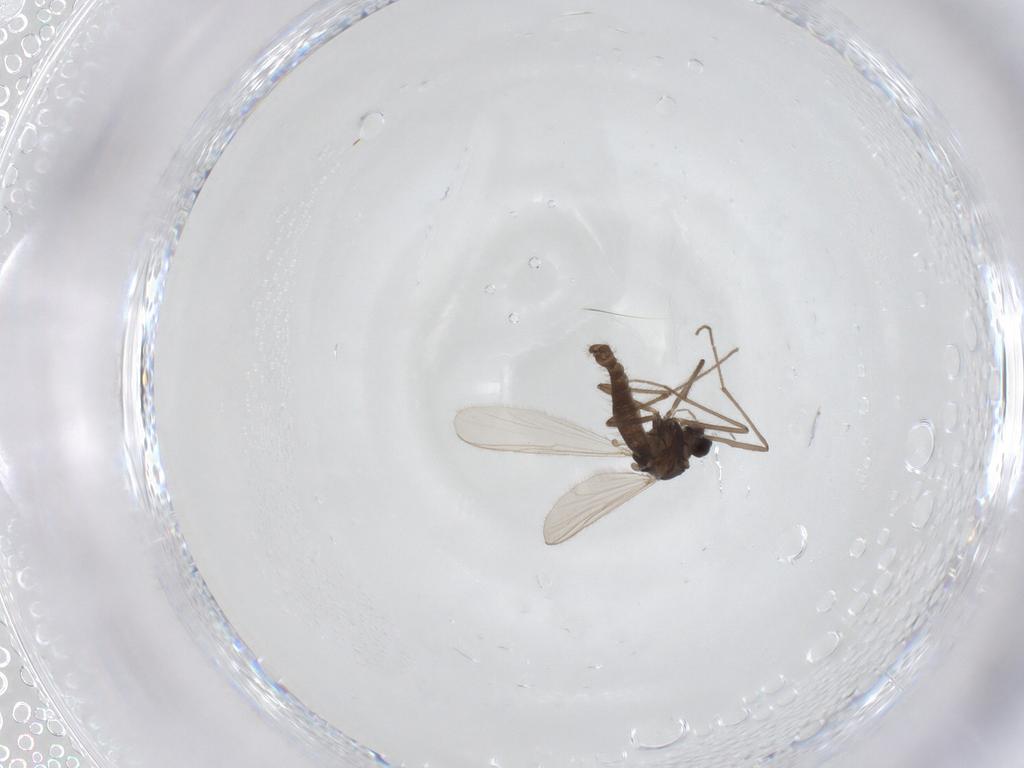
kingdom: Animalia
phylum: Arthropoda
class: Insecta
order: Diptera
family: Chironomidae
